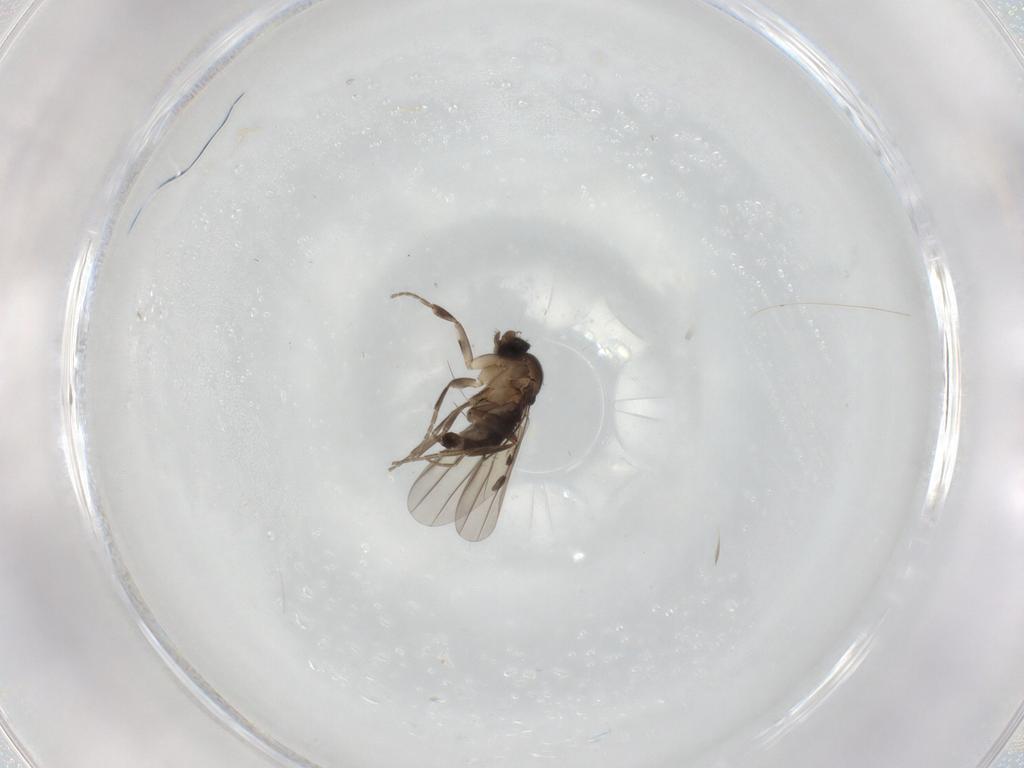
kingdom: Animalia
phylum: Arthropoda
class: Insecta
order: Diptera
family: Phoridae
